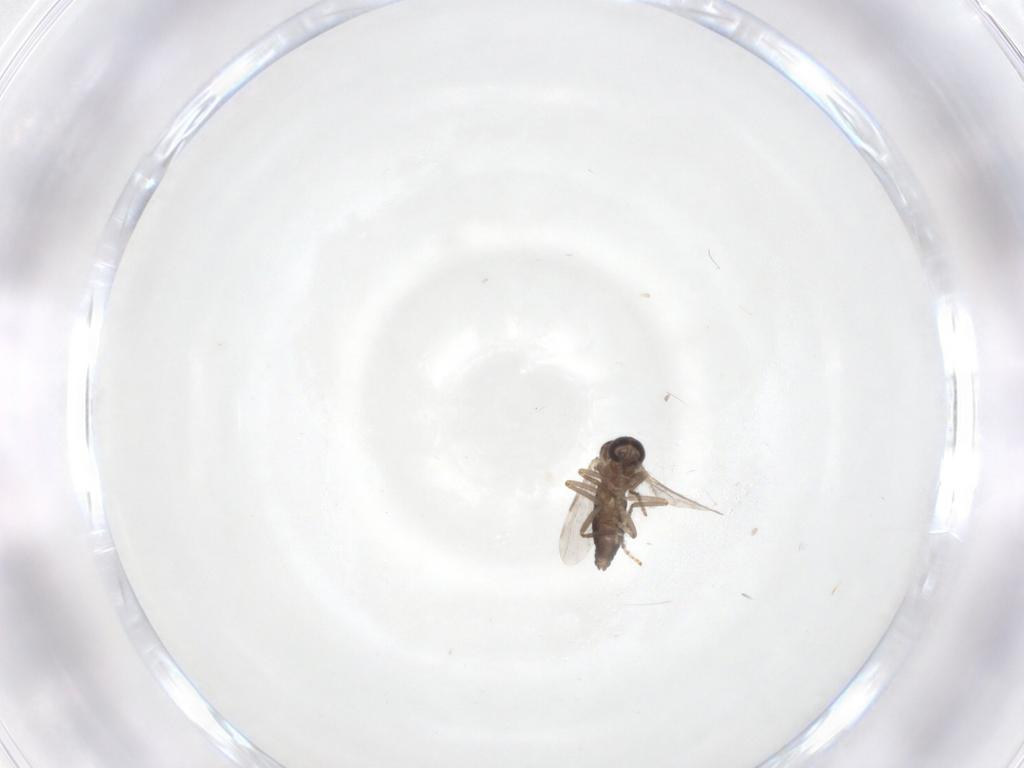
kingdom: Animalia
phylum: Arthropoda
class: Insecta
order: Diptera
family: Ceratopogonidae
